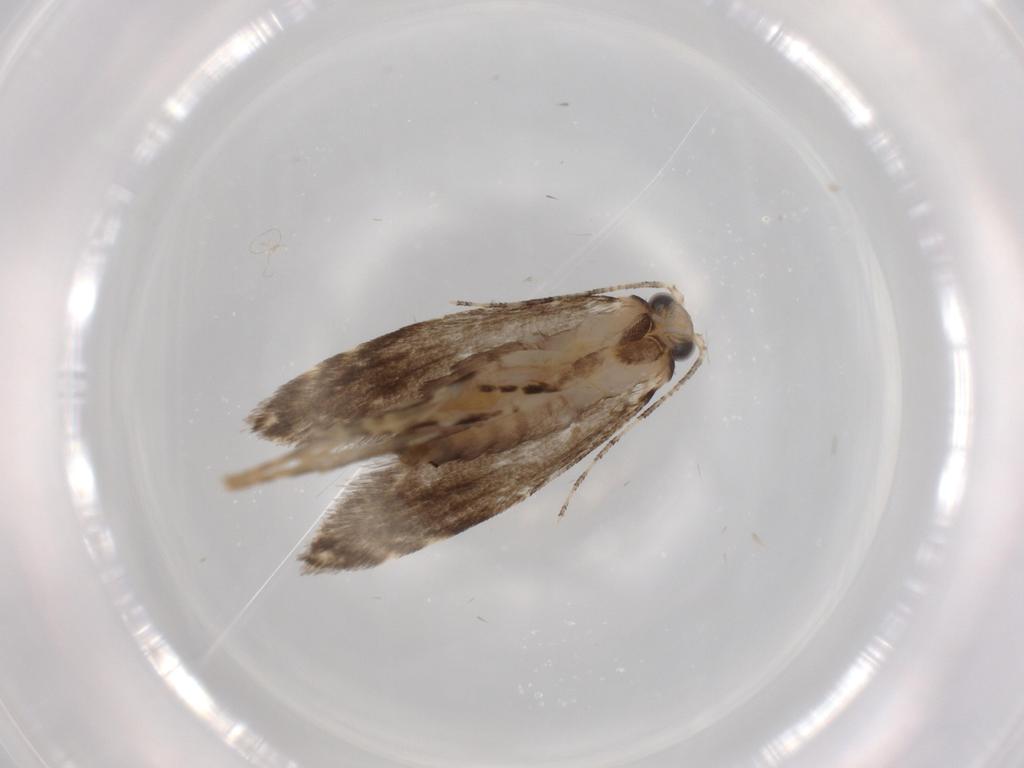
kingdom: Animalia
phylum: Arthropoda
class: Insecta
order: Lepidoptera
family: Tineidae
